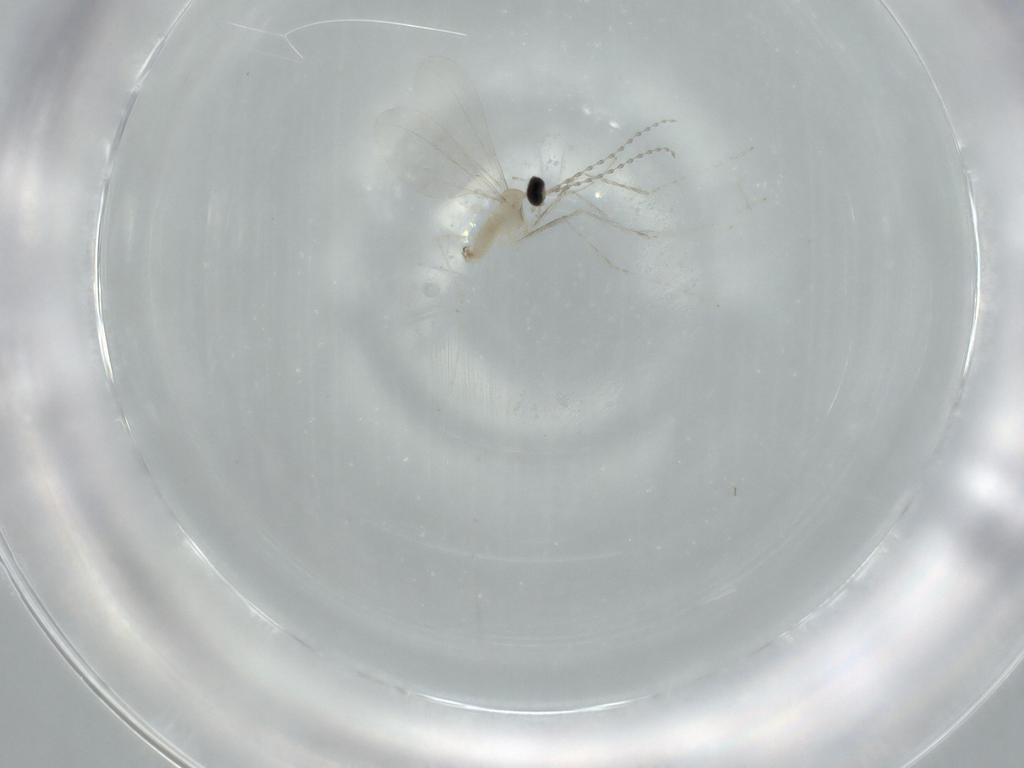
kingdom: Animalia
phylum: Arthropoda
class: Insecta
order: Diptera
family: Cecidomyiidae
